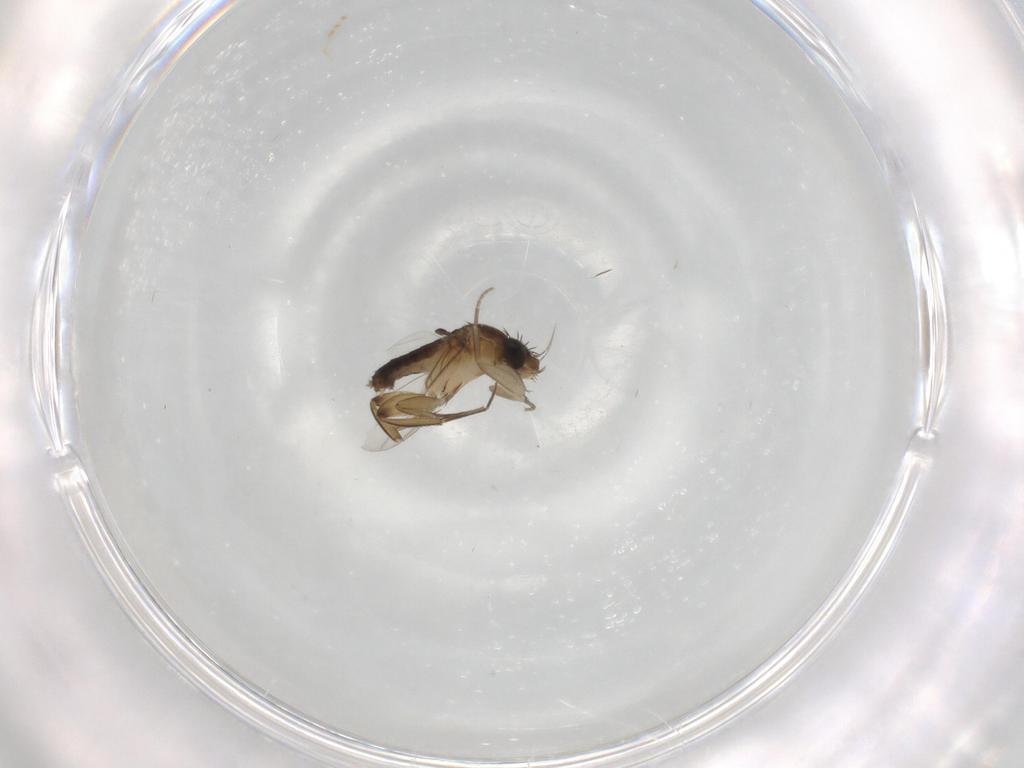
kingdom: Animalia
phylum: Arthropoda
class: Insecta
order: Diptera
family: Phoridae
